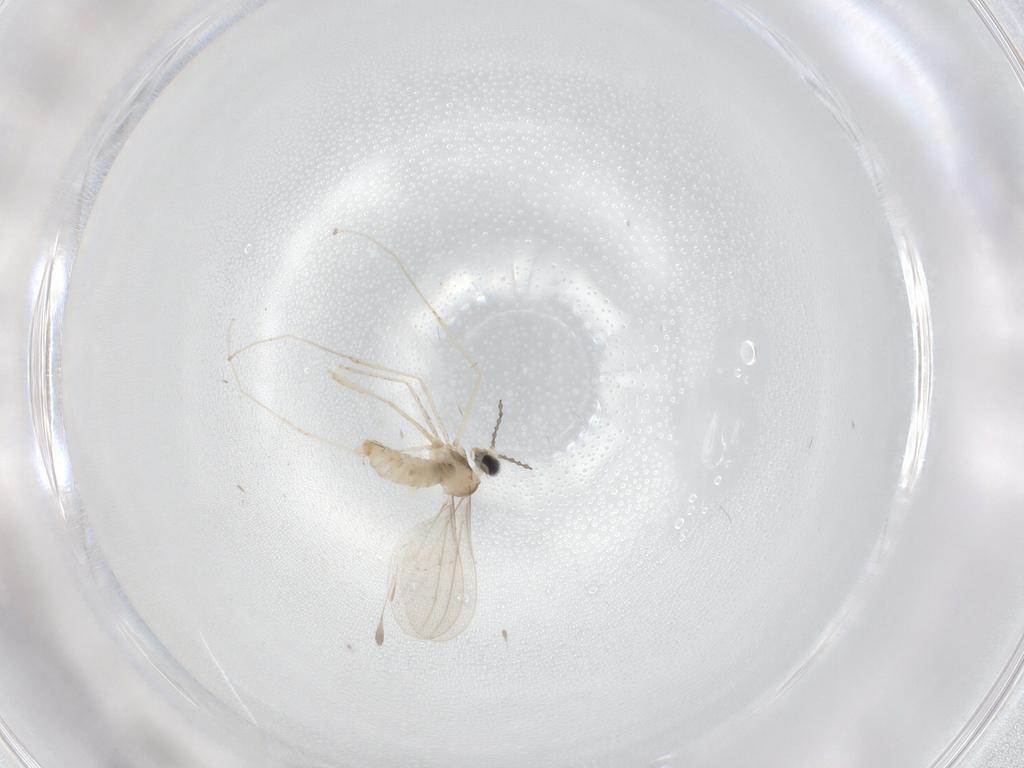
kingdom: Animalia
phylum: Arthropoda
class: Insecta
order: Diptera
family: Cecidomyiidae
